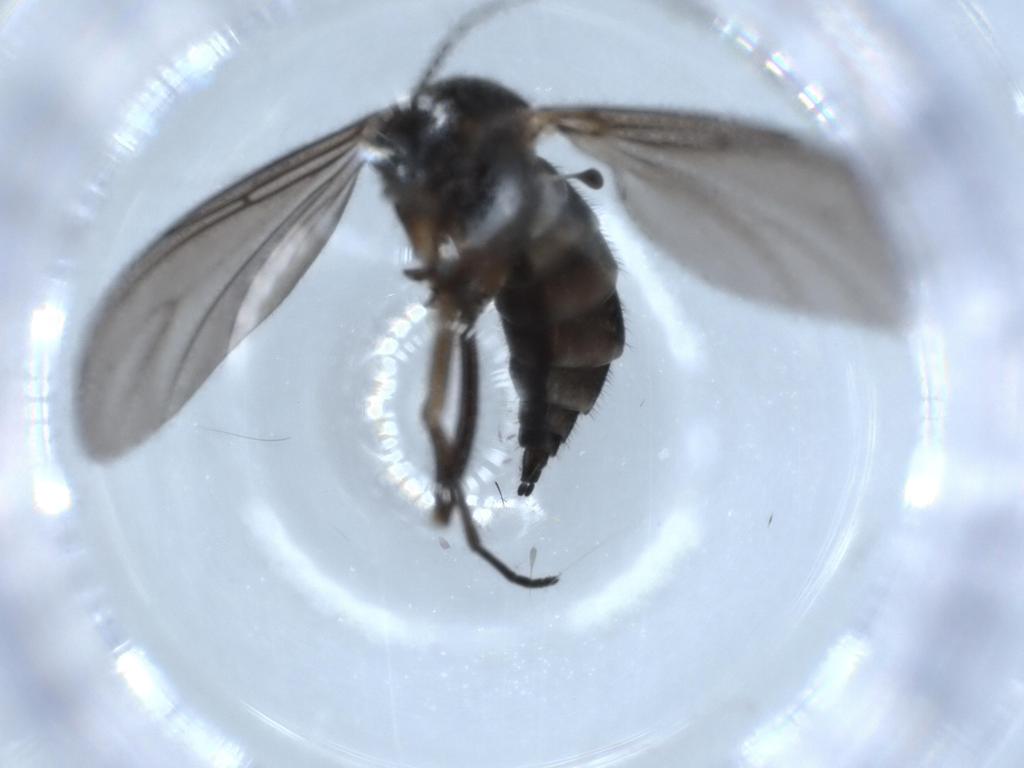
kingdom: Animalia
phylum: Arthropoda
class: Insecta
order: Diptera
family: Sciaridae
